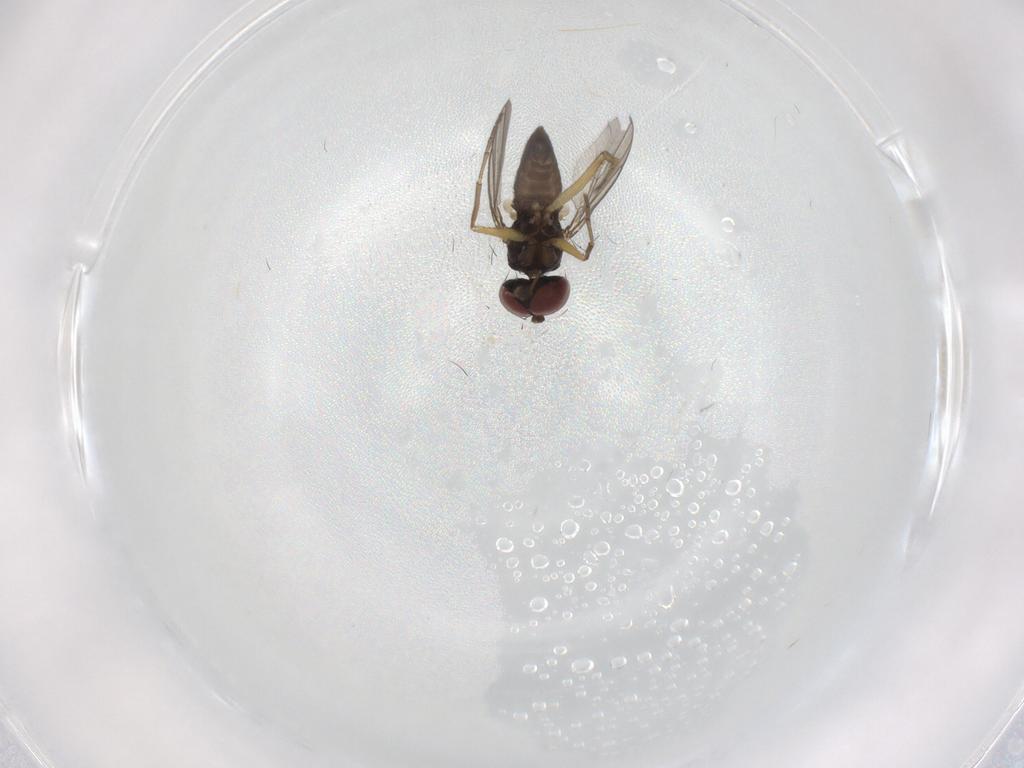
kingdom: Animalia
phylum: Arthropoda
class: Insecta
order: Diptera
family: Dolichopodidae
